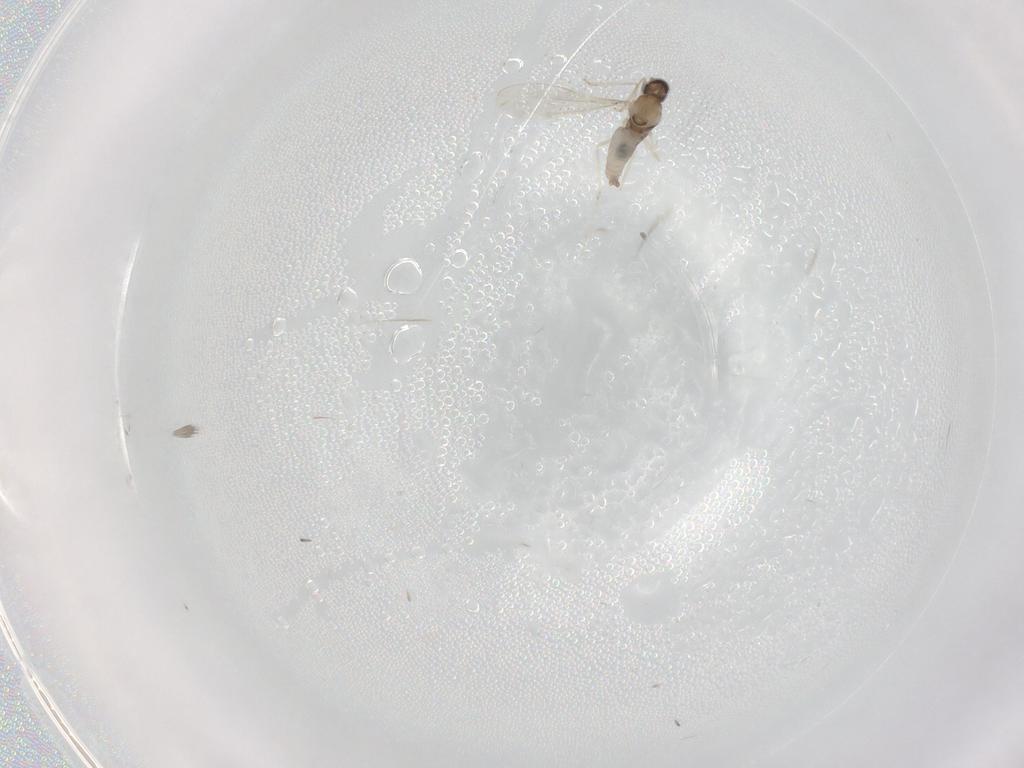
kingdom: Animalia
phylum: Arthropoda
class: Insecta
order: Diptera
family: Cecidomyiidae
